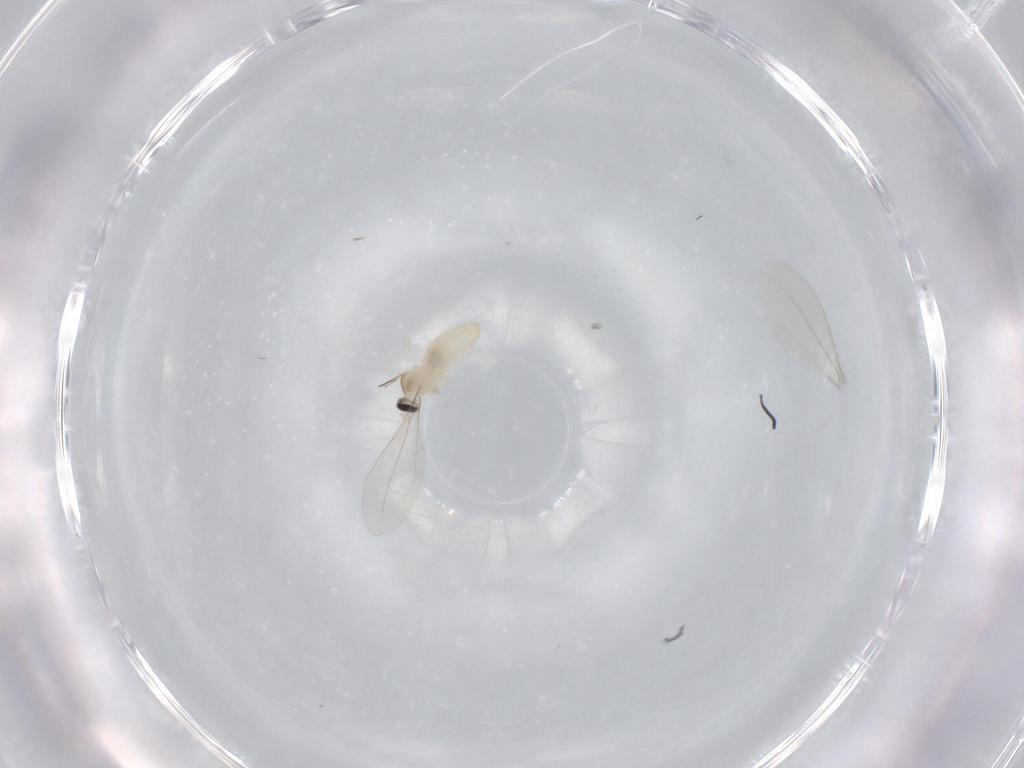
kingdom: Animalia
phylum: Arthropoda
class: Insecta
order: Diptera
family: Cecidomyiidae
